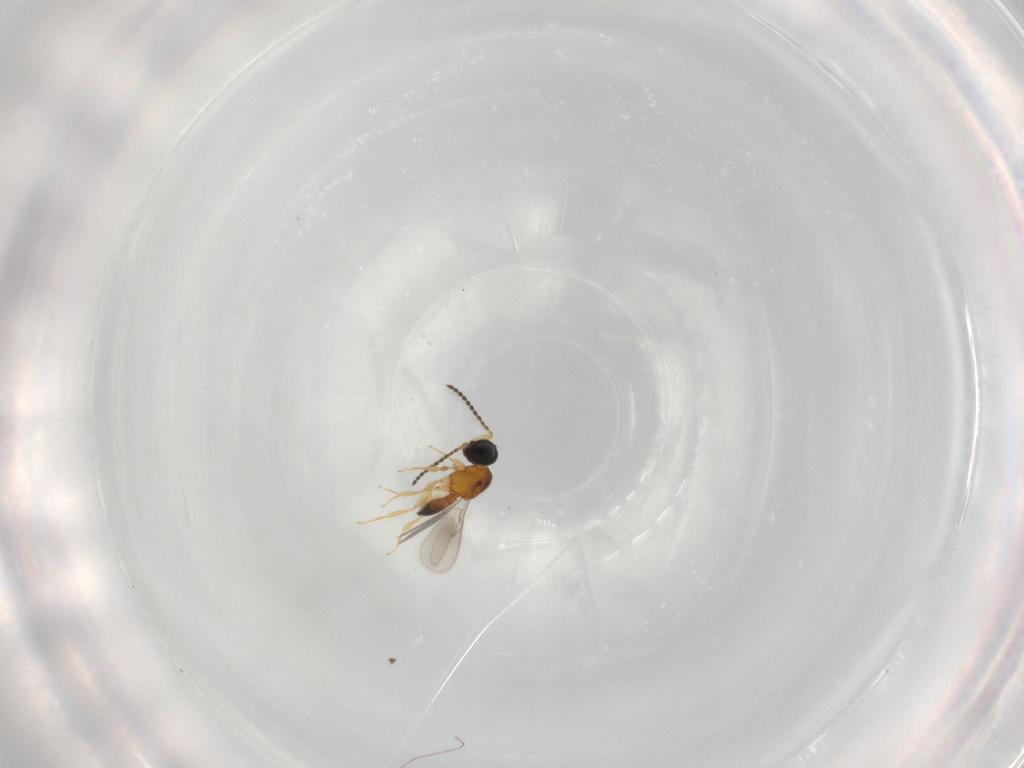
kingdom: Animalia
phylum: Arthropoda
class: Insecta
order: Hymenoptera
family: Scelionidae
